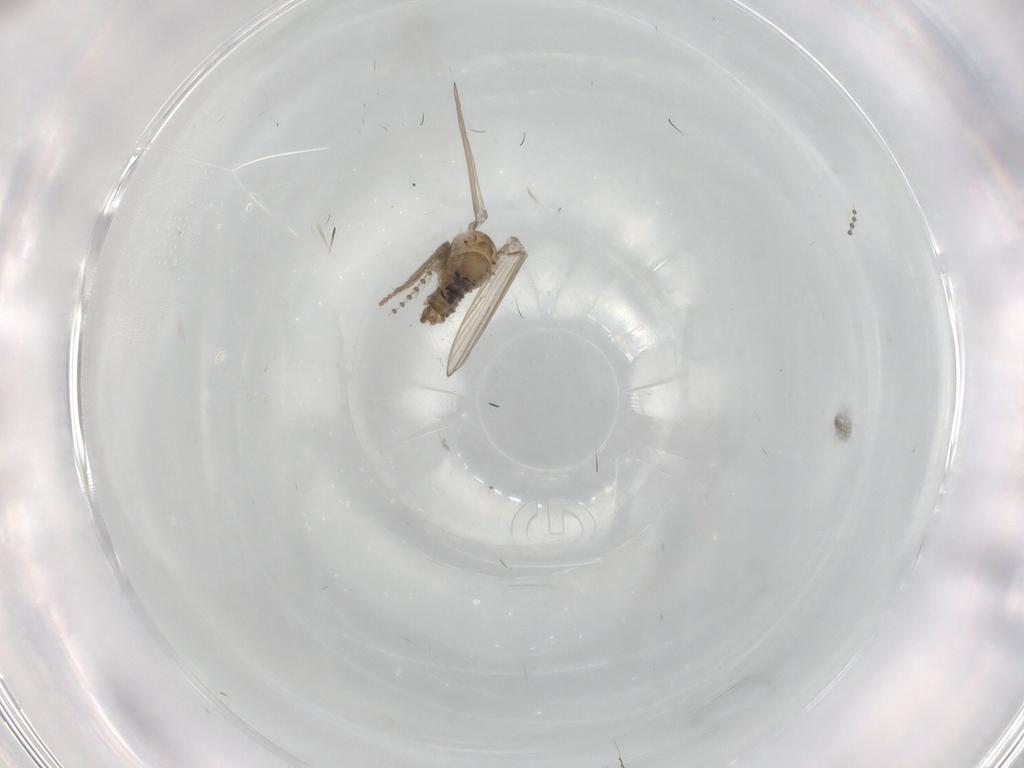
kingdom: Animalia
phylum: Arthropoda
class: Insecta
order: Diptera
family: Psychodidae
